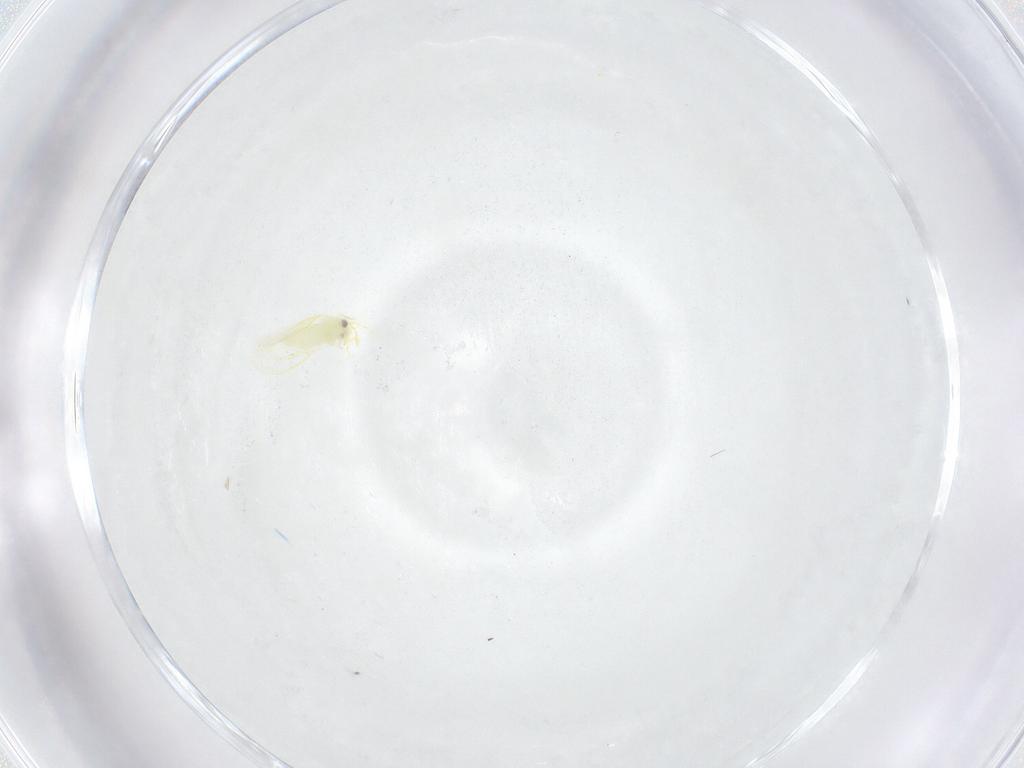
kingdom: Animalia
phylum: Arthropoda
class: Insecta
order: Hemiptera
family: Aleyrodidae
